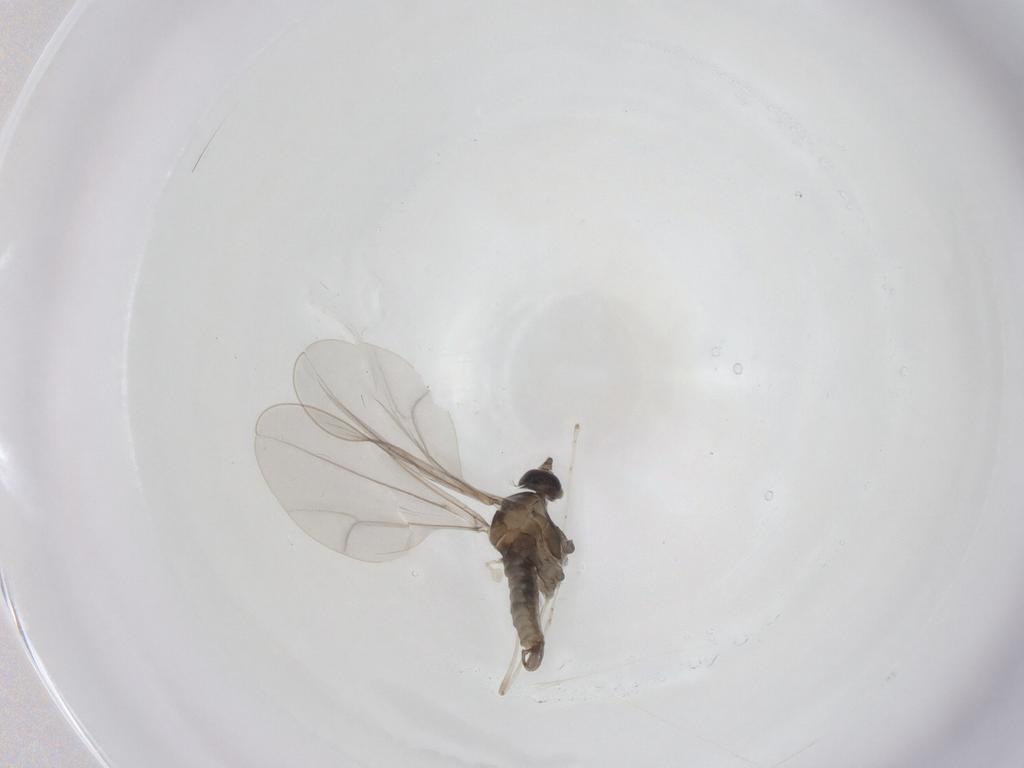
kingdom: Animalia
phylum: Arthropoda
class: Insecta
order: Diptera
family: Cecidomyiidae
